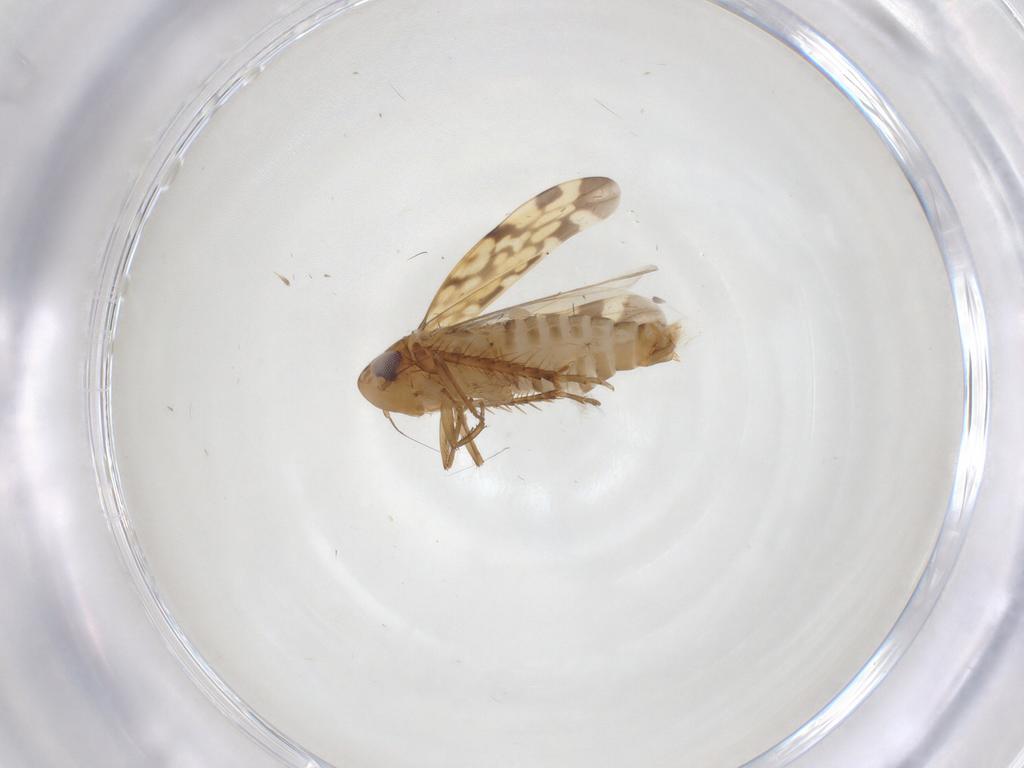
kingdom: Animalia
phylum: Arthropoda
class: Insecta
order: Hemiptera
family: Cicadellidae
